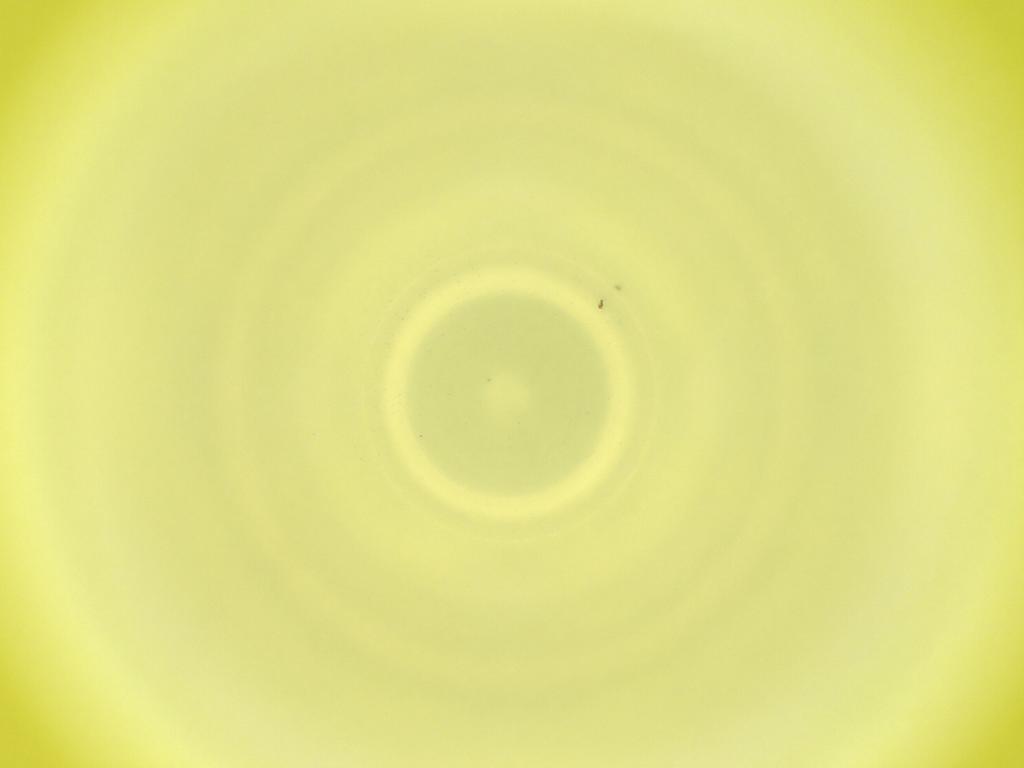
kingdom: Animalia
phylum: Arthropoda
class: Insecta
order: Diptera
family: Cecidomyiidae
